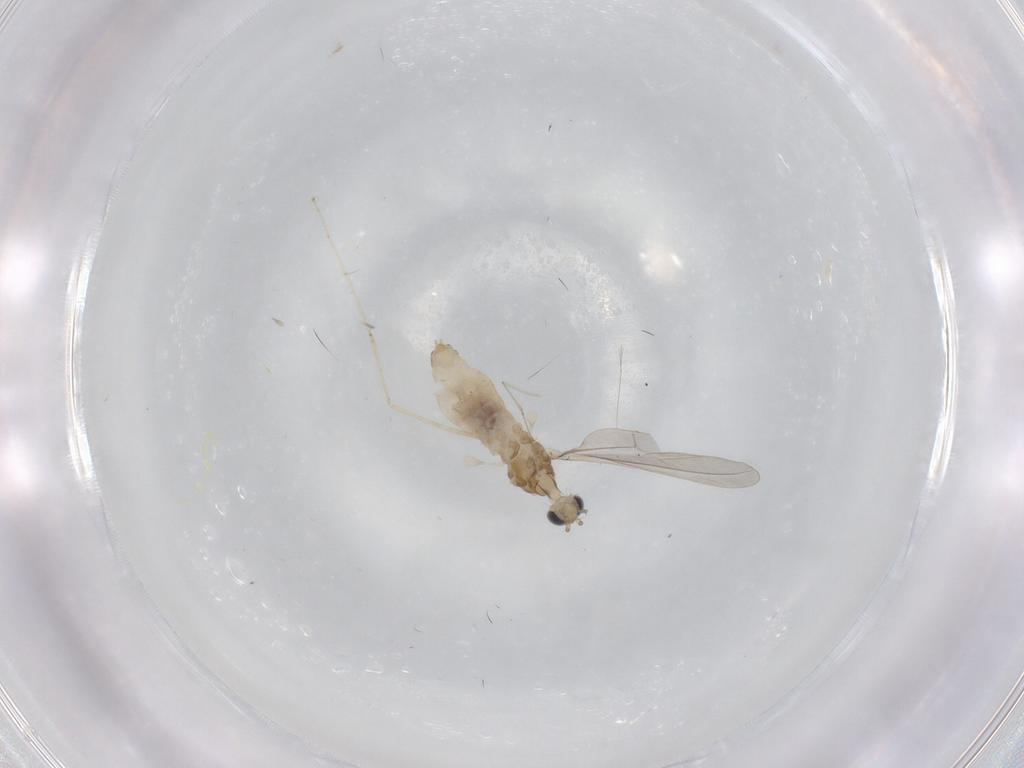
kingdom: Animalia
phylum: Arthropoda
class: Insecta
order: Diptera
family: Cecidomyiidae
